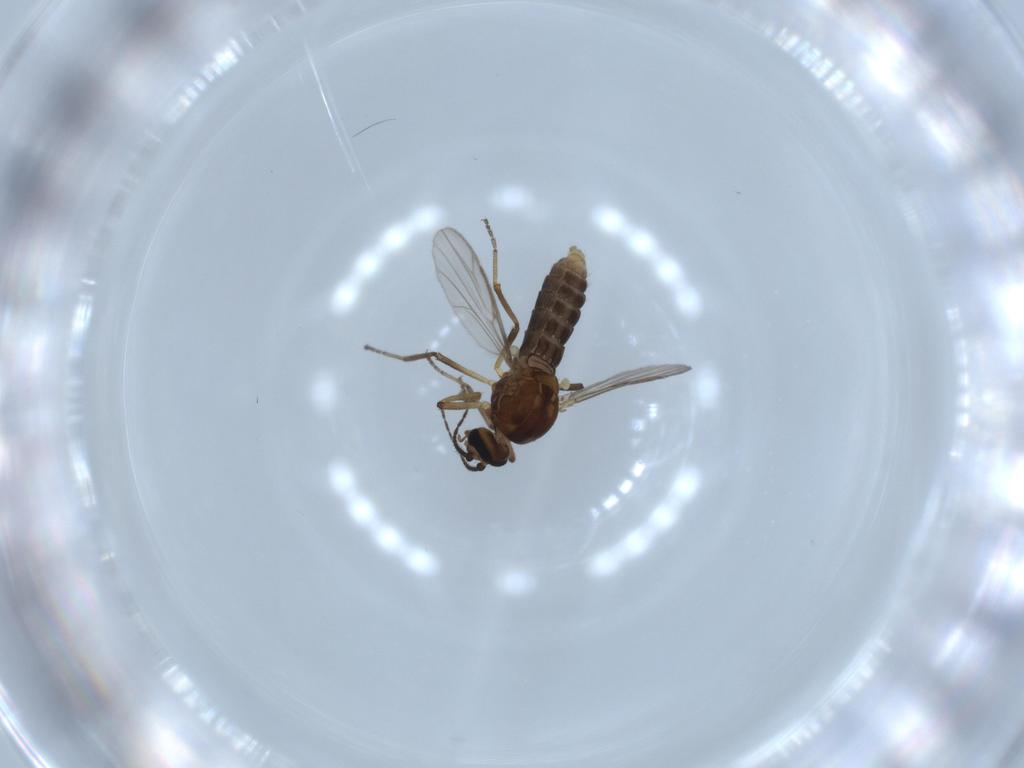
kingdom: Animalia
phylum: Arthropoda
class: Insecta
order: Diptera
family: Ceratopogonidae
